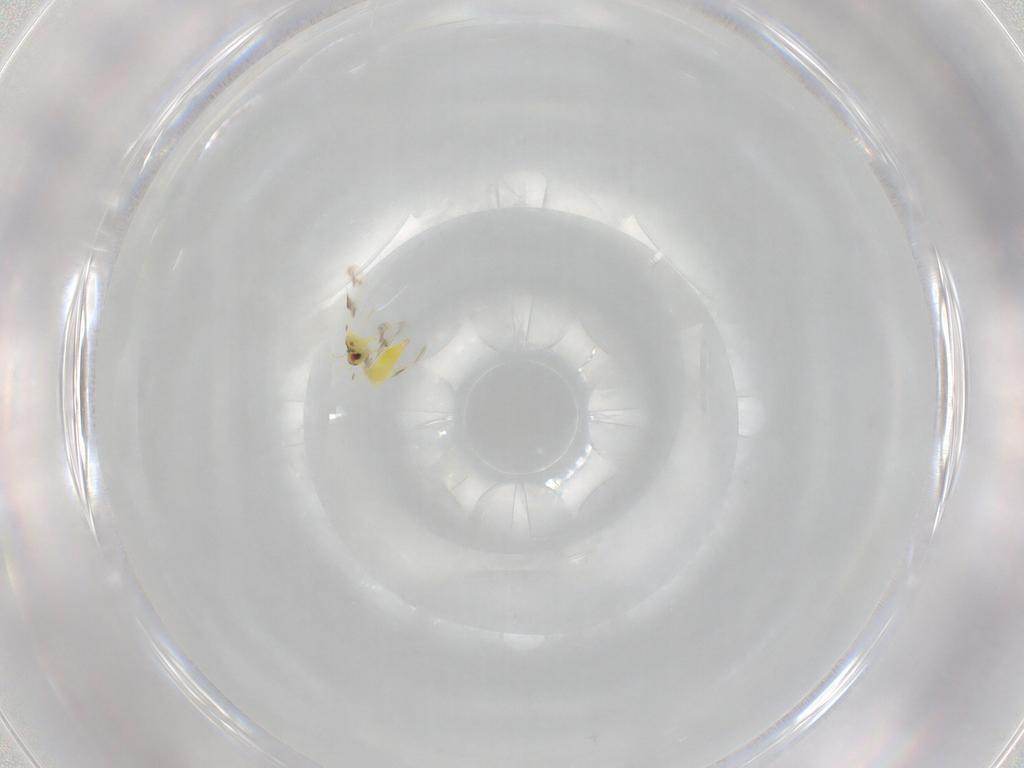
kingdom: Animalia
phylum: Arthropoda
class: Insecta
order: Hemiptera
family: Aleyrodidae
